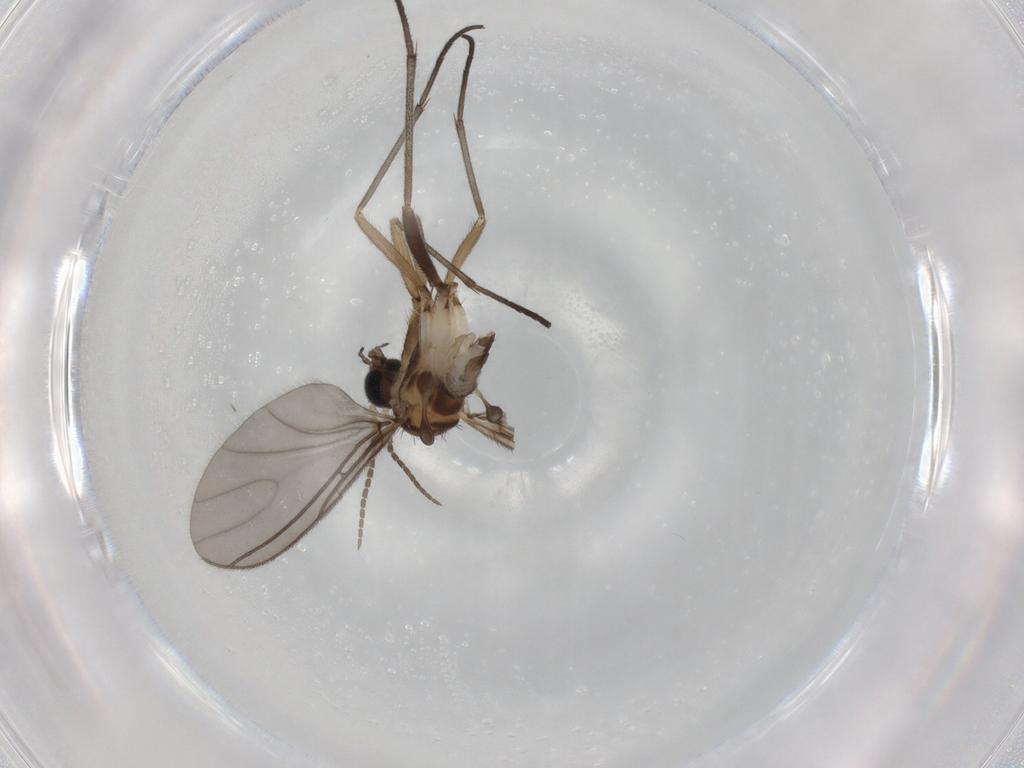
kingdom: Animalia
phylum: Arthropoda
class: Insecta
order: Diptera
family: Sciaridae
